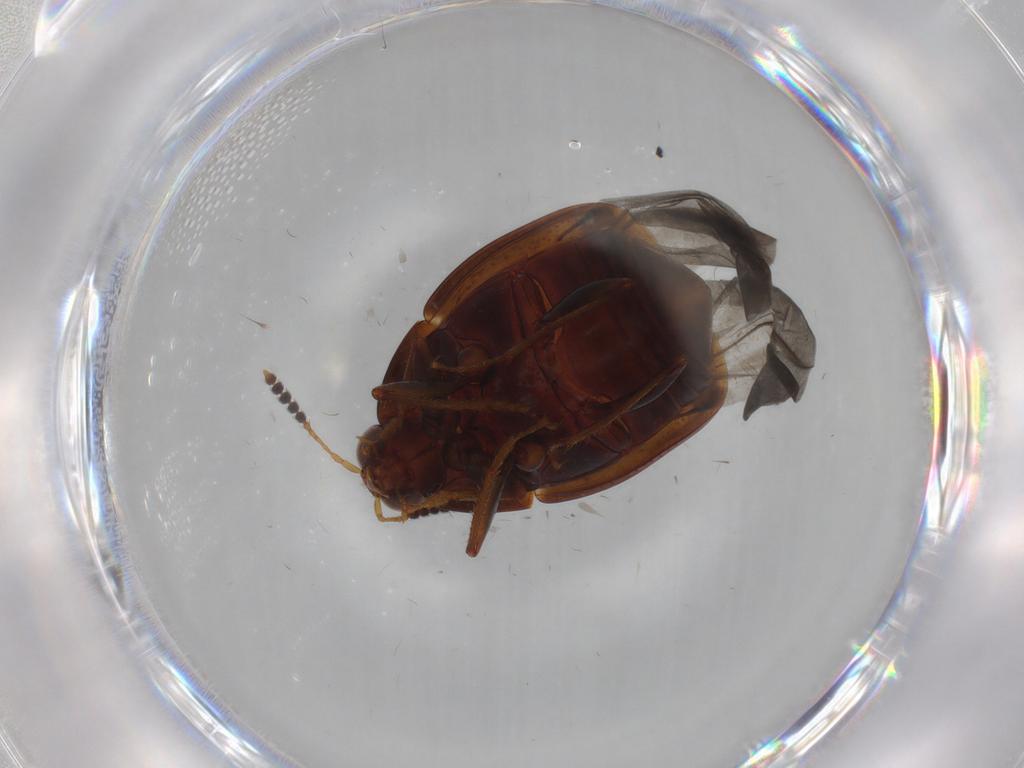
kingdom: Animalia
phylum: Arthropoda
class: Insecta
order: Coleoptera
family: Staphylinidae
